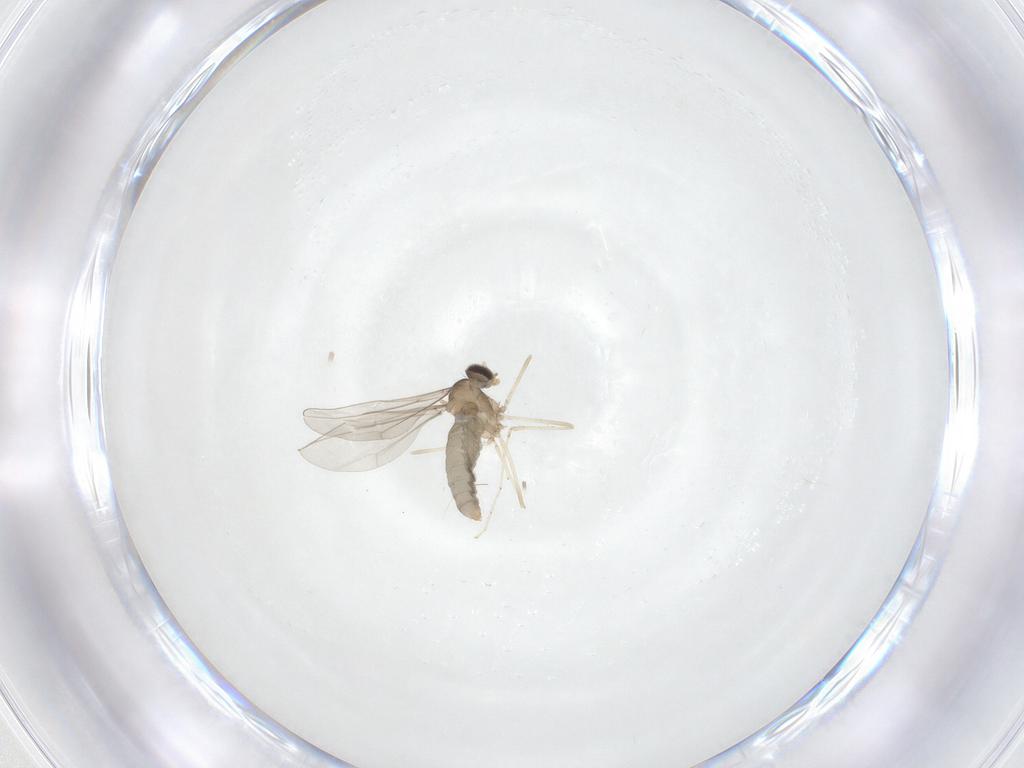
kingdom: Animalia
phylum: Arthropoda
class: Insecta
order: Diptera
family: Cecidomyiidae
